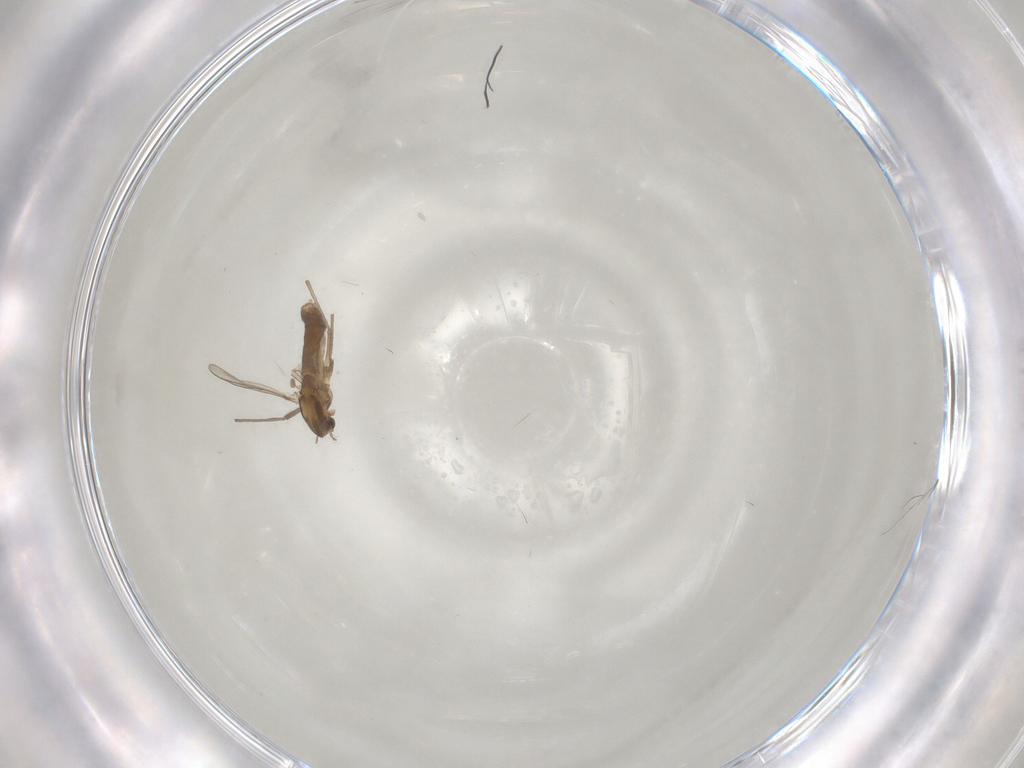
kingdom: Animalia
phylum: Arthropoda
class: Insecta
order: Diptera
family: Chironomidae
